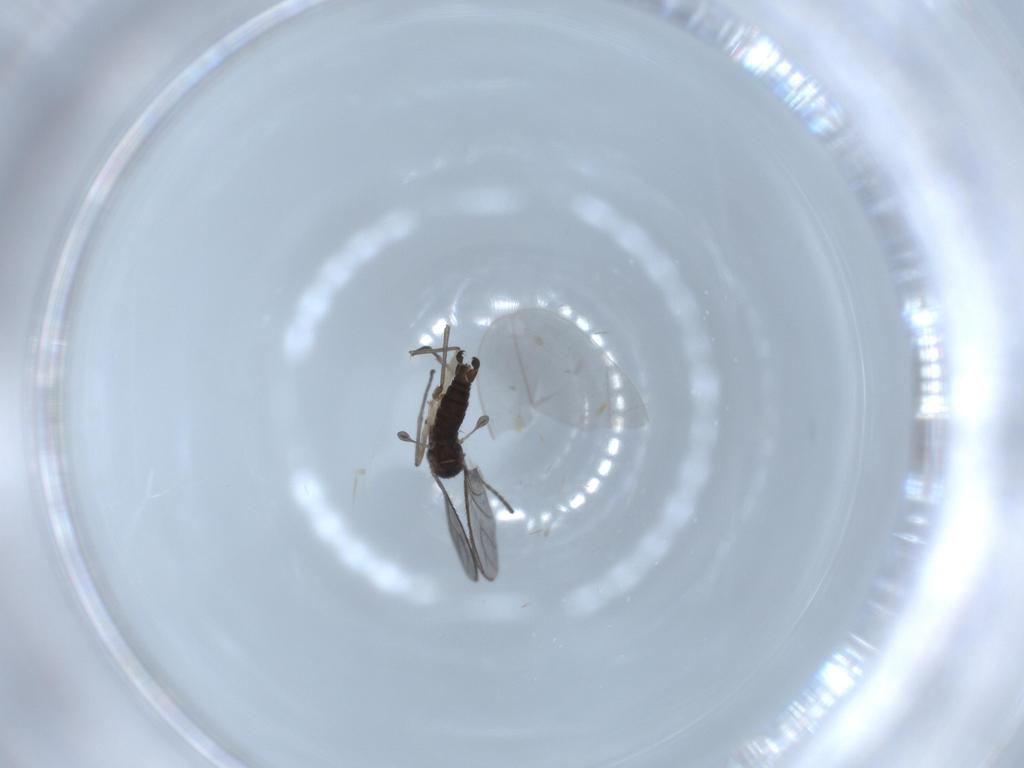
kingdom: Animalia
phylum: Arthropoda
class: Insecta
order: Diptera
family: Cecidomyiidae
